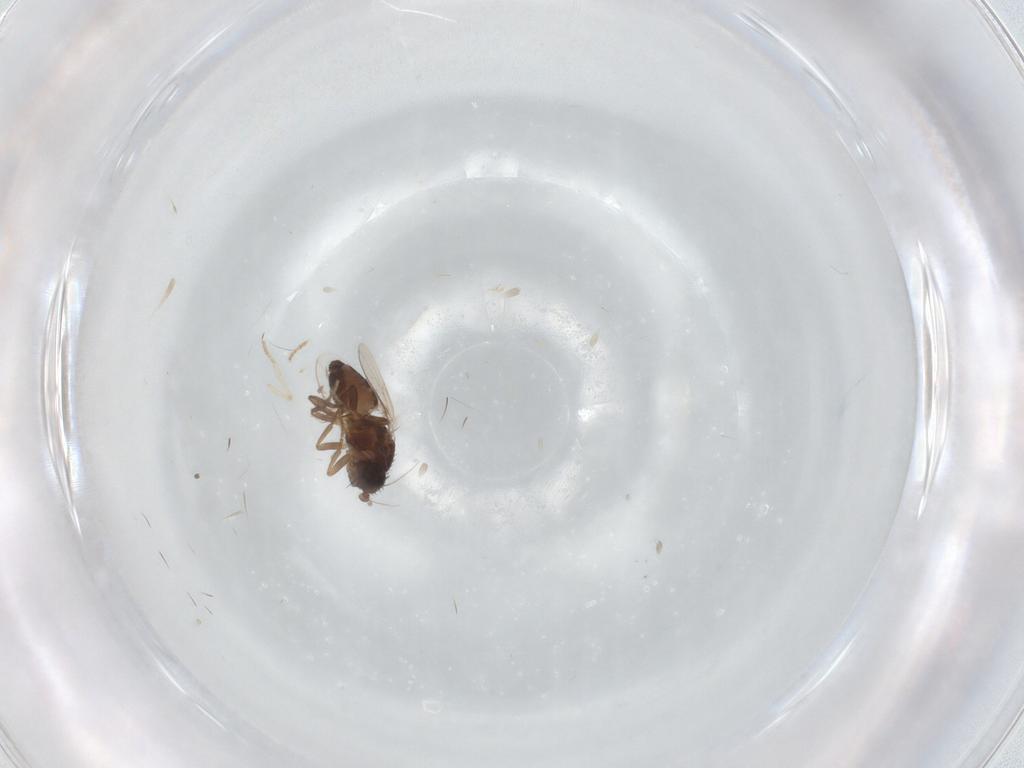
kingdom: Animalia
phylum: Arthropoda
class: Insecta
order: Diptera
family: Sphaeroceridae
